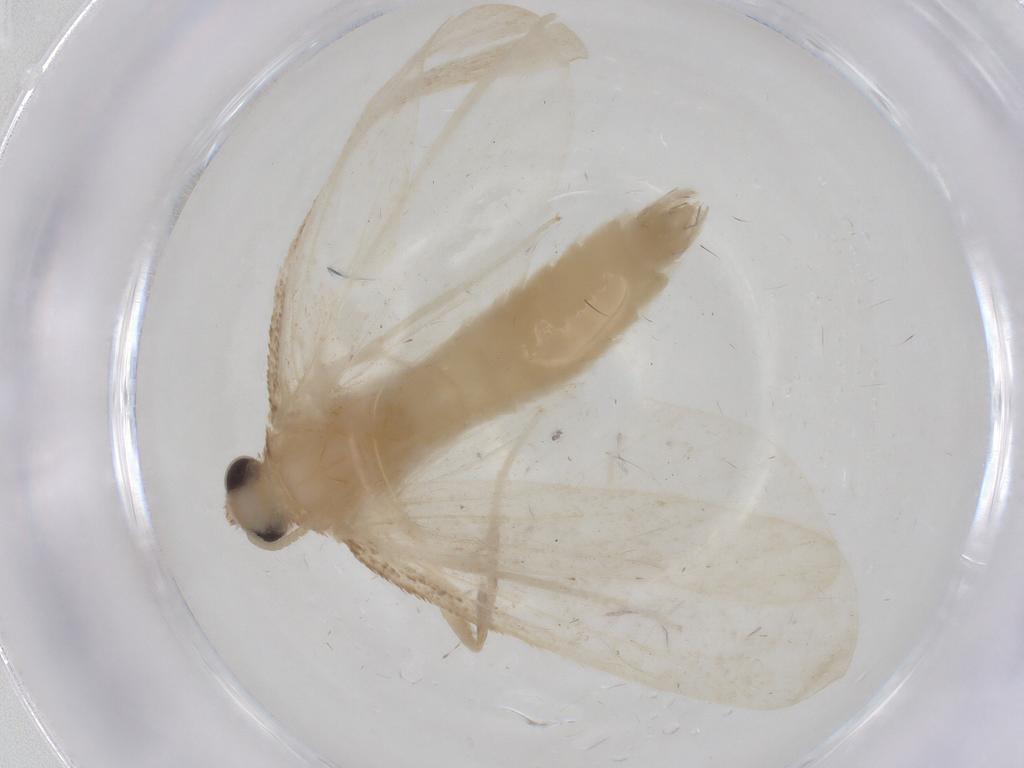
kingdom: Animalia
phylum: Arthropoda
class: Insecta
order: Lepidoptera
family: Crambidae
